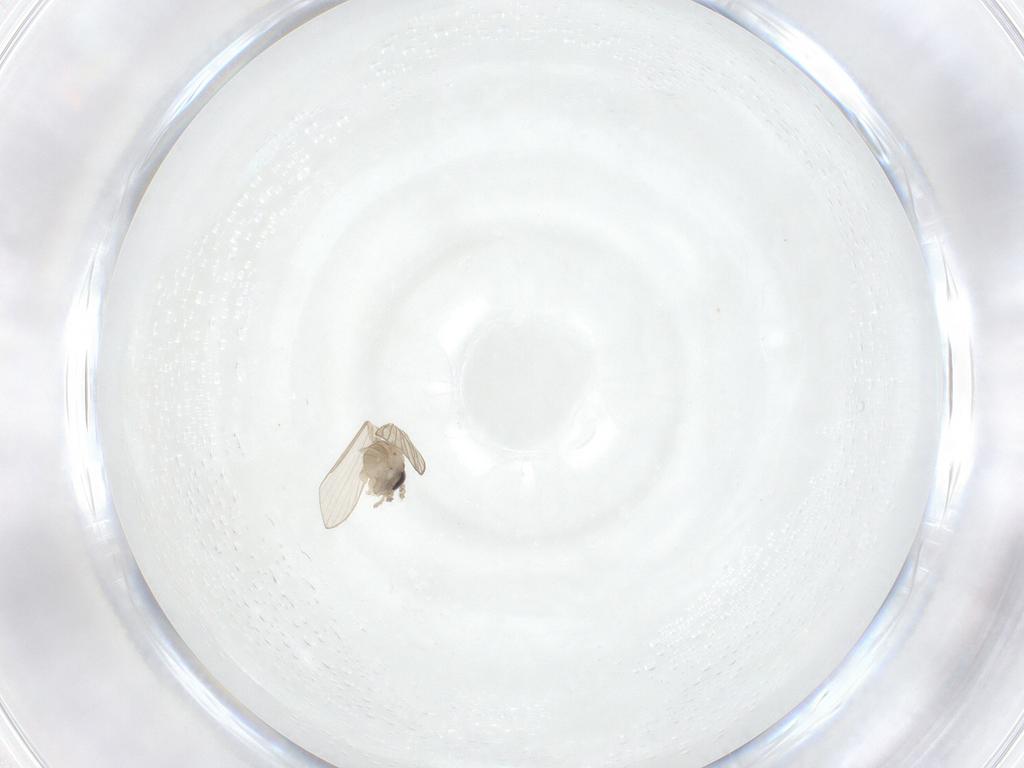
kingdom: Animalia
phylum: Arthropoda
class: Insecta
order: Diptera
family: Psychodidae
